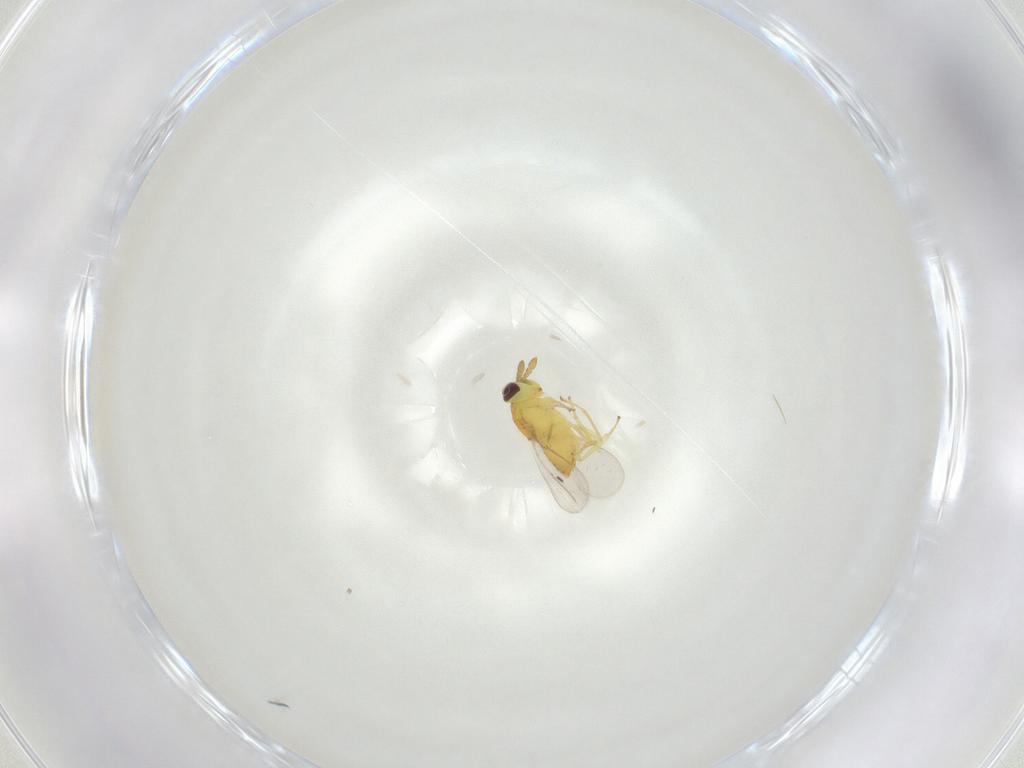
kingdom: Animalia
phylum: Arthropoda
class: Insecta
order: Hymenoptera
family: Aphelinidae
